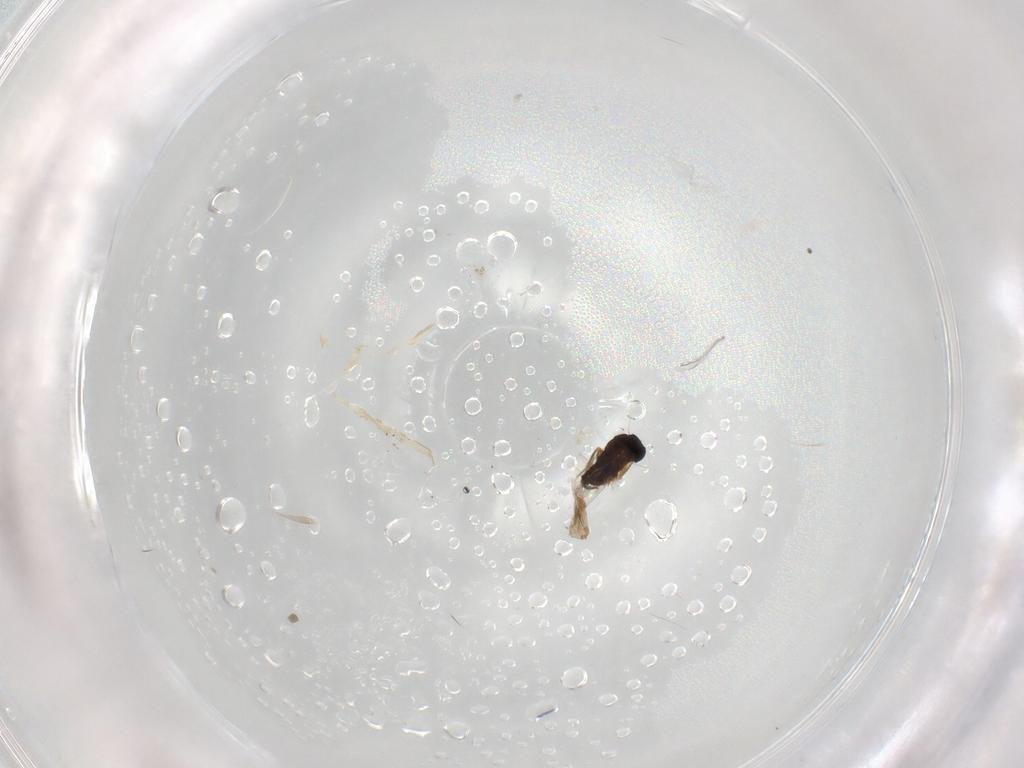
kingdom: Animalia
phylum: Arthropoda
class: Insecta
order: Diptera
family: Phoridae
